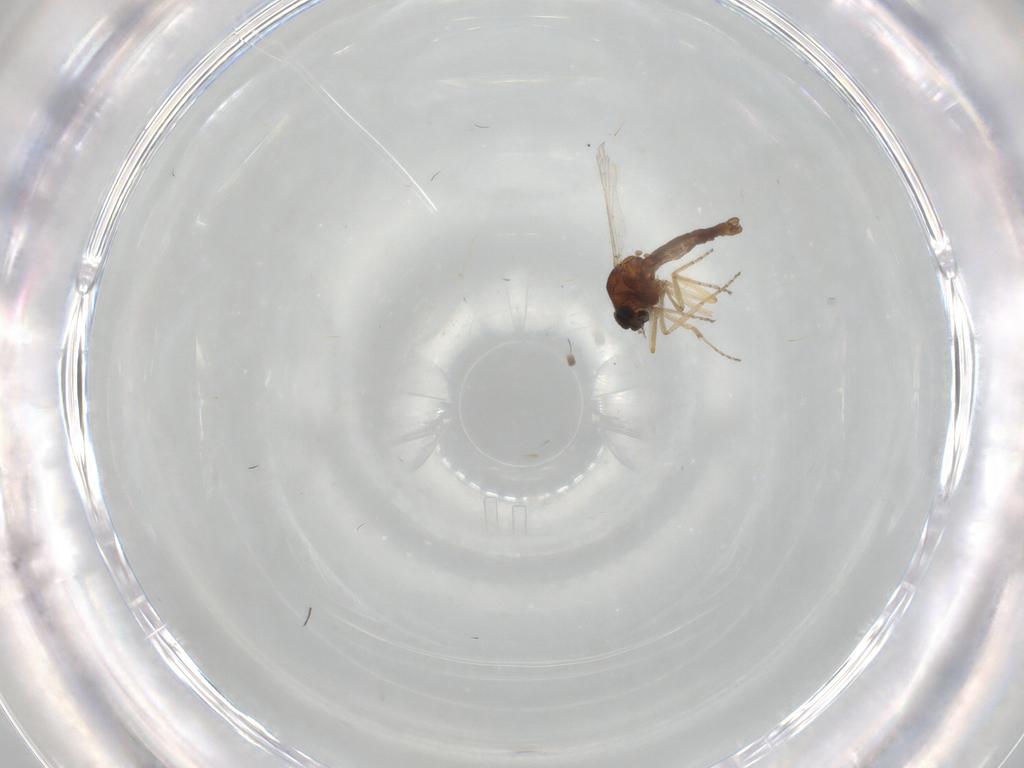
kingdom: Animalia
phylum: Arthropoda
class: Insecta
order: Diptera
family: Ceratopogonidae
